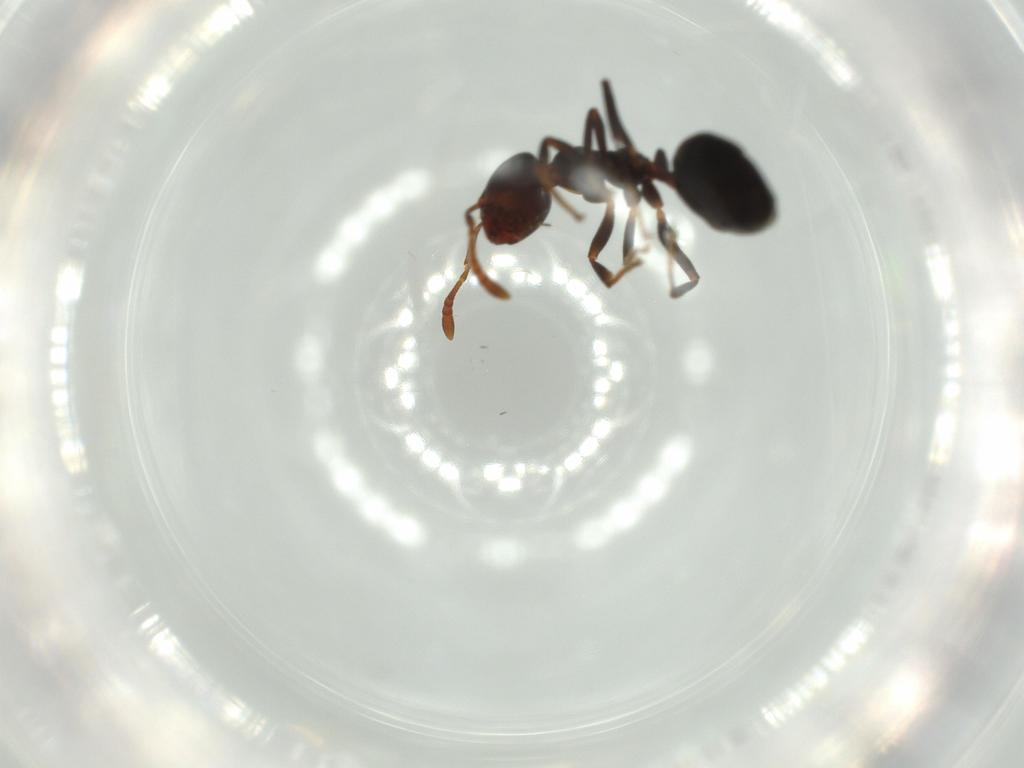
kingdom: Animalia
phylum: Arthropoda
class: Insecta
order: Hymenoptera
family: Formicidae
